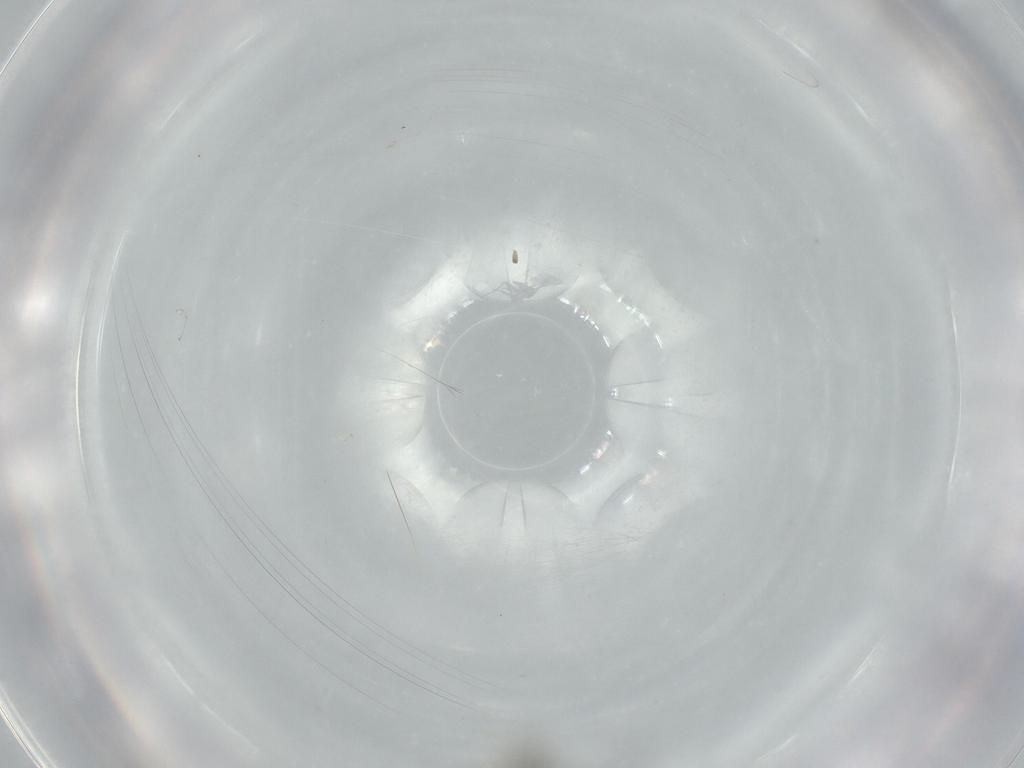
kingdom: Animalia
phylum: Arthropoda
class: Insecta
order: Diptera
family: Sciaridae
